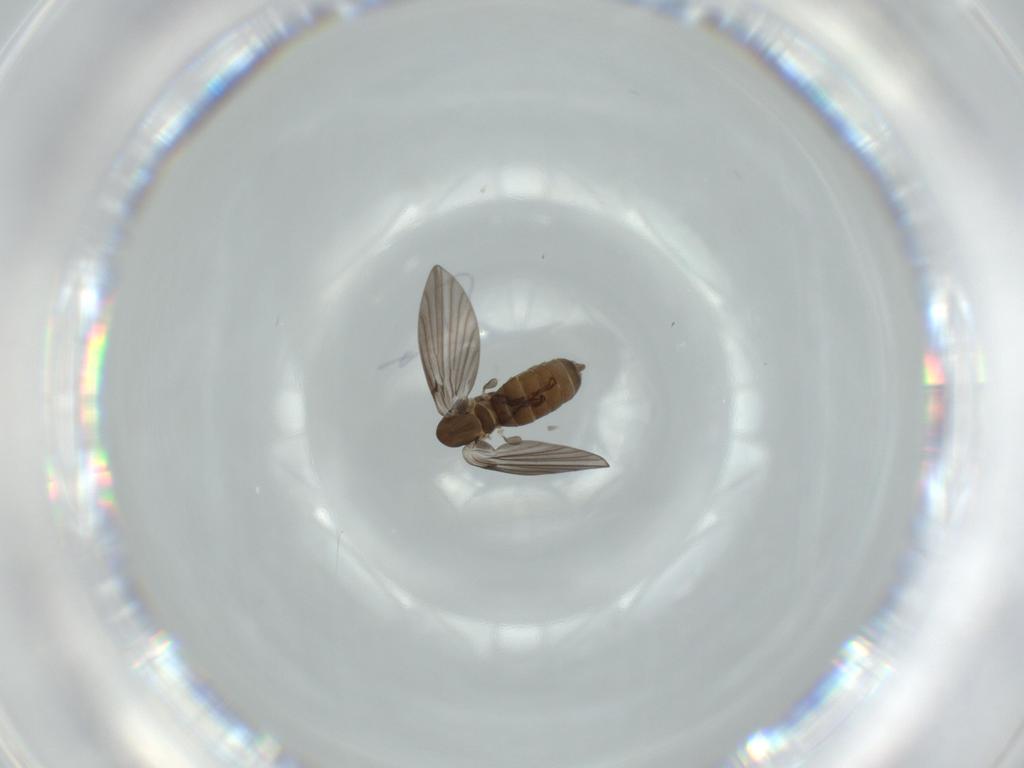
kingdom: Animalia
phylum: Arthropoda
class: Insecta
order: Diptera
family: Psychodidae
